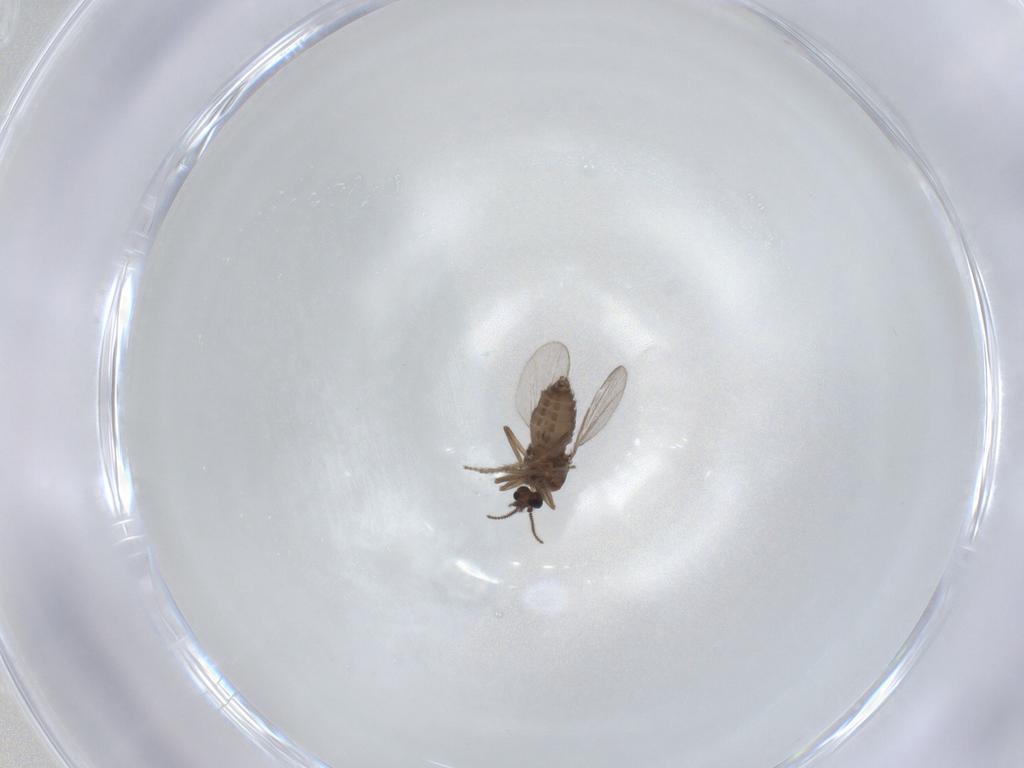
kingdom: Animalia
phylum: Arthropoda
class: Insecta
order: Diptera
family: Ceratopogonidae
